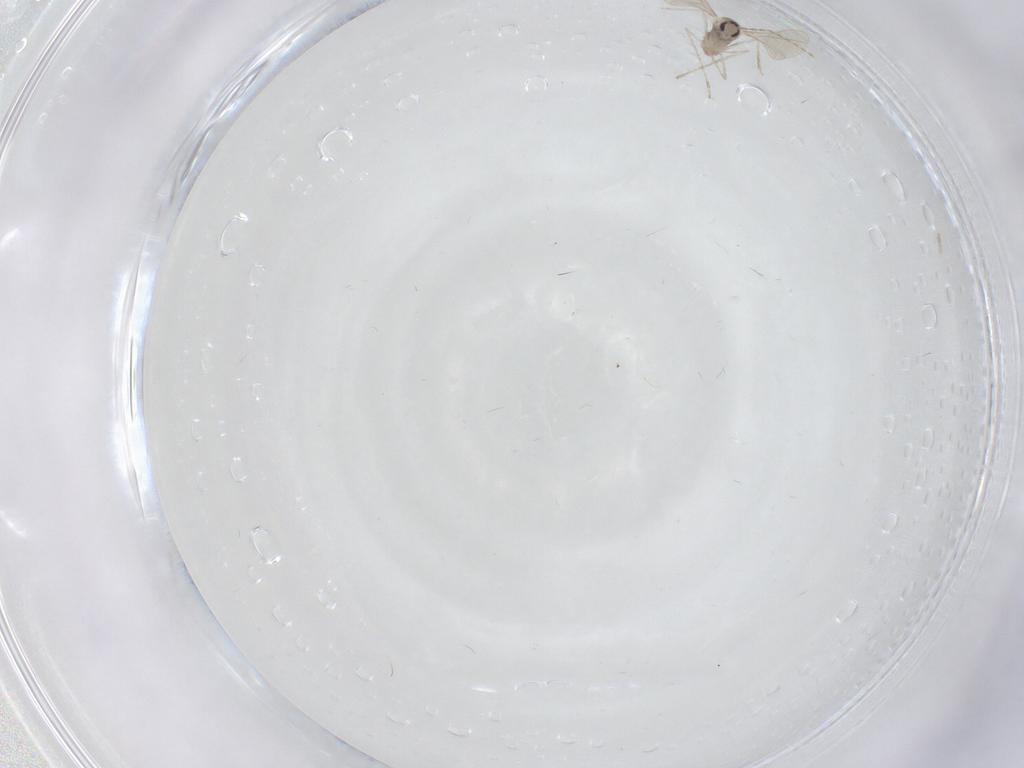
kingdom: Animalia
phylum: Arthropoda
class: Insecta
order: Diptera
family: Cecidomyiidae
